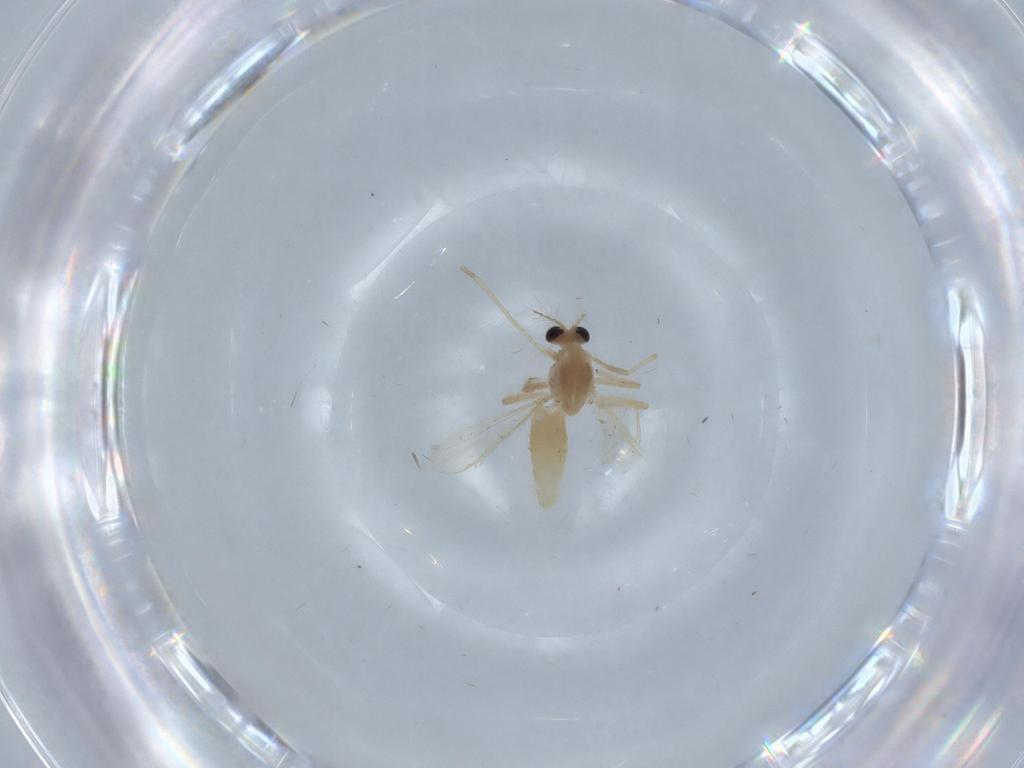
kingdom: Animalia
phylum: Arthropoda
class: Insecta
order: Diptera
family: Chironomidae
